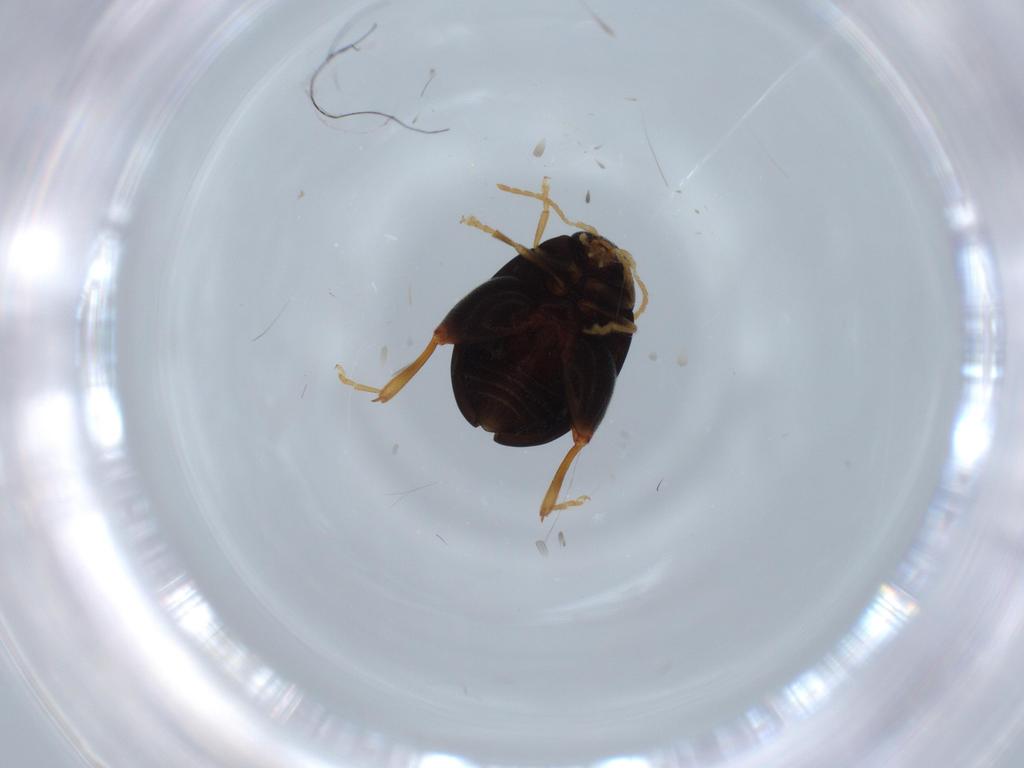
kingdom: Animalia
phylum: Arthropoda
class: Insecta
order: Coleoptera
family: Chrysomelidae
